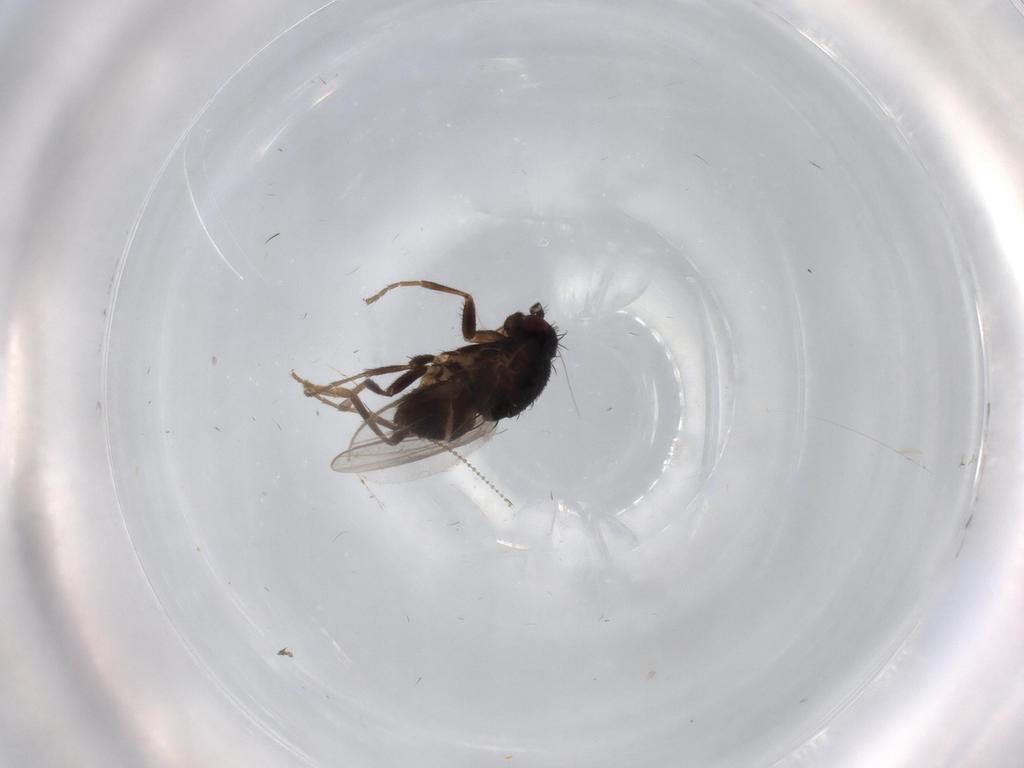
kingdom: Animalia
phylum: Arthropoda
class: Insecta
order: Diptera
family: Sphaeroceridae
